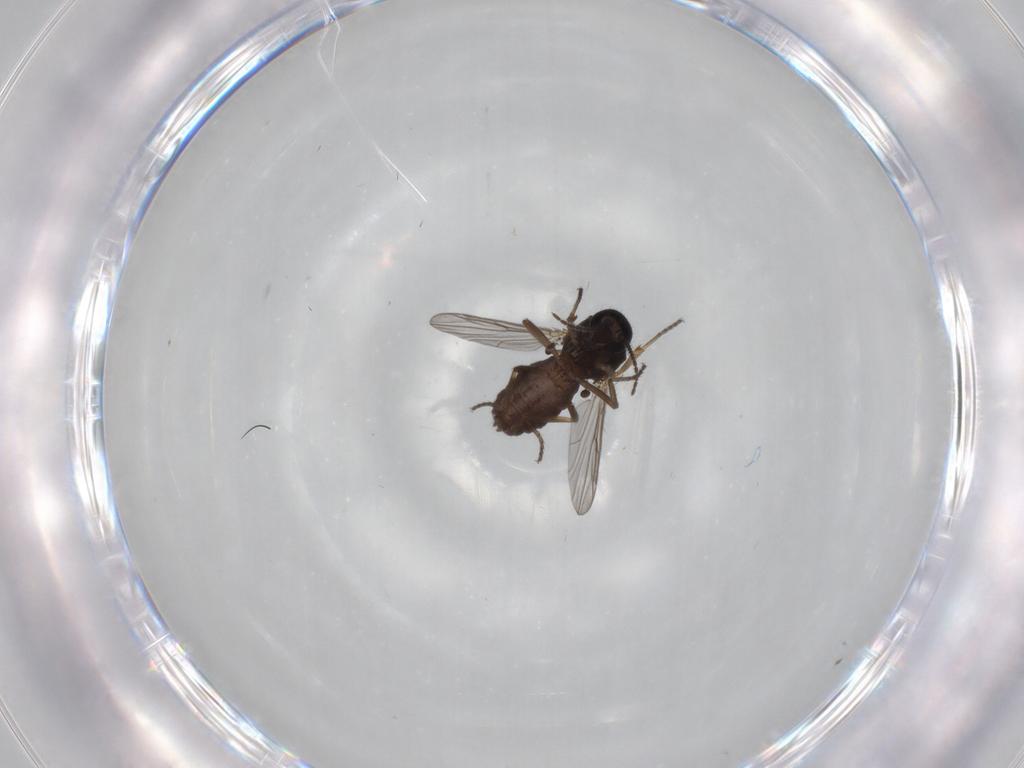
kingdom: Animalia
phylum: Arthropoda
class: Insecta
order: Diptera
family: Ceratopogonidae
